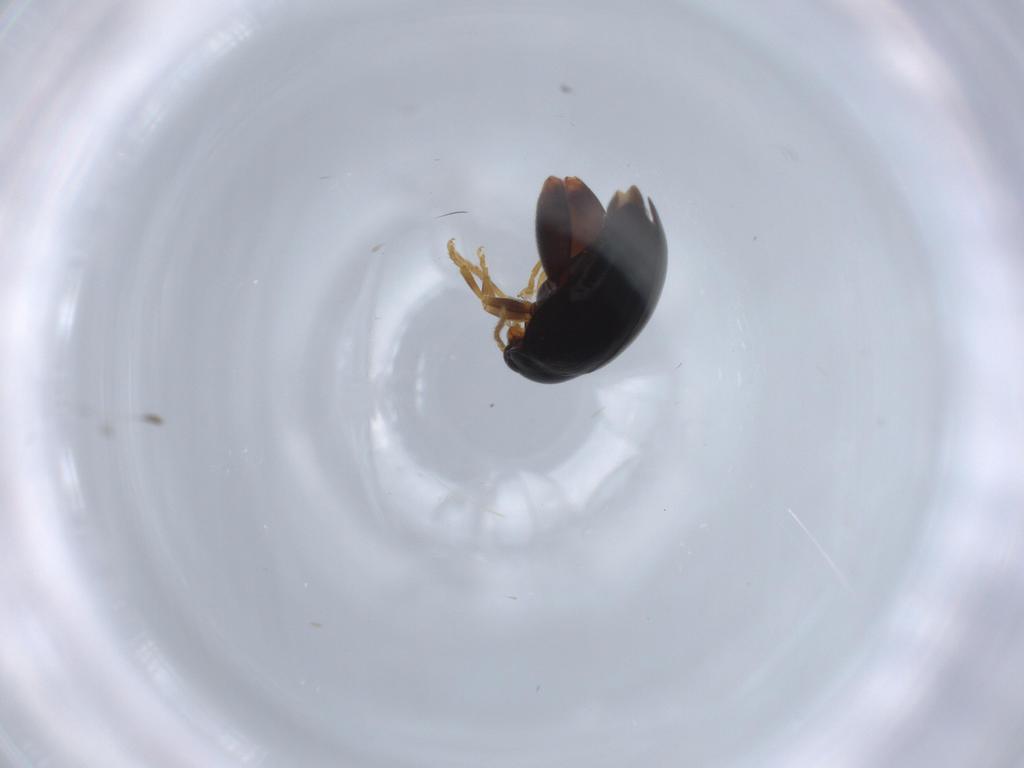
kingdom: Animalia
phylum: Arthropoda
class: Insecta
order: Coleoptera
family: Chrysomelidae
